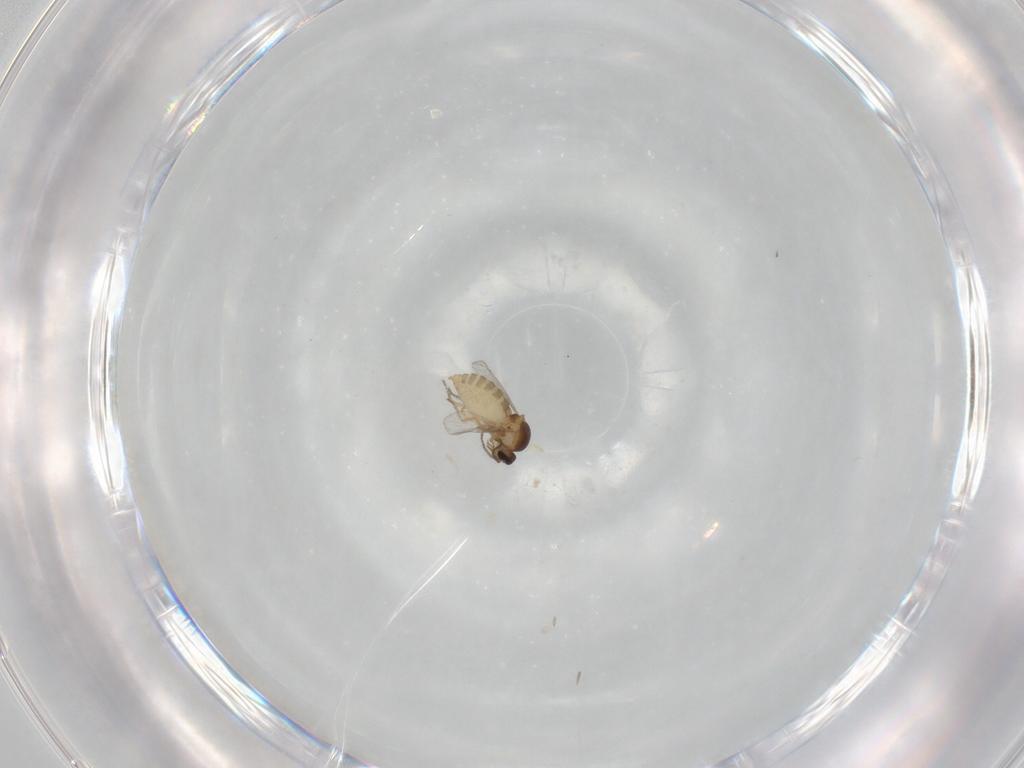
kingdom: Animalia
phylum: Arthropoda
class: Insecta
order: Diptera
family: Ceratopogonidae
